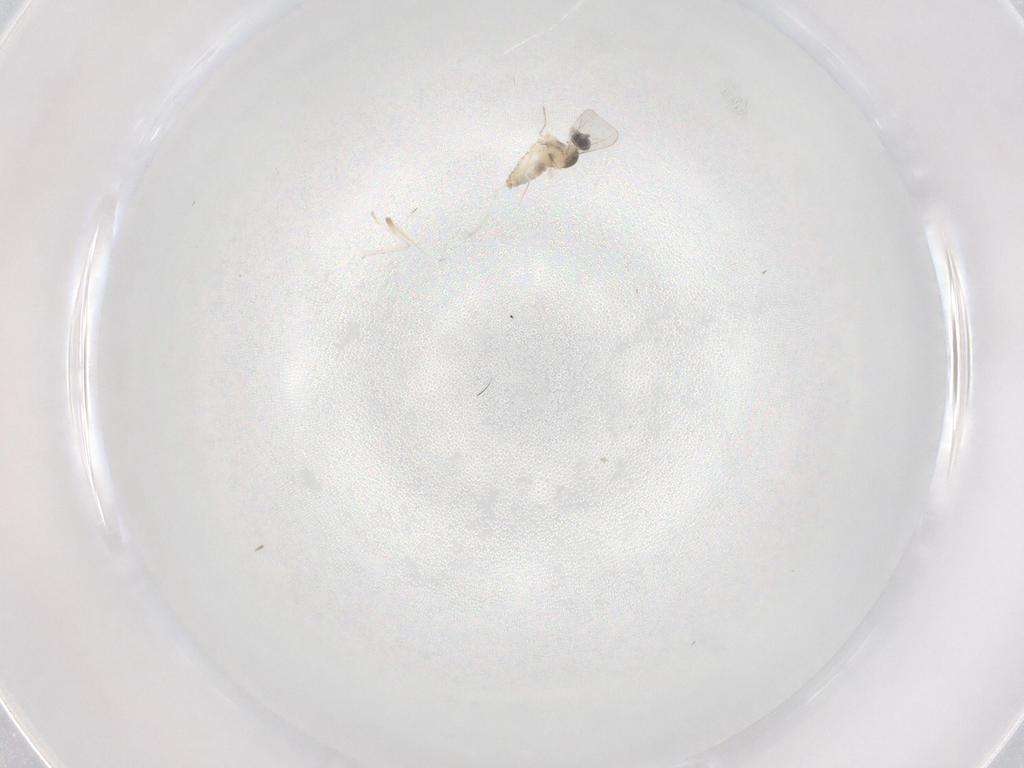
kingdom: Animalia
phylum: Arthropoda
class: Insecta
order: Diptera
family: Cecidomyiidae
